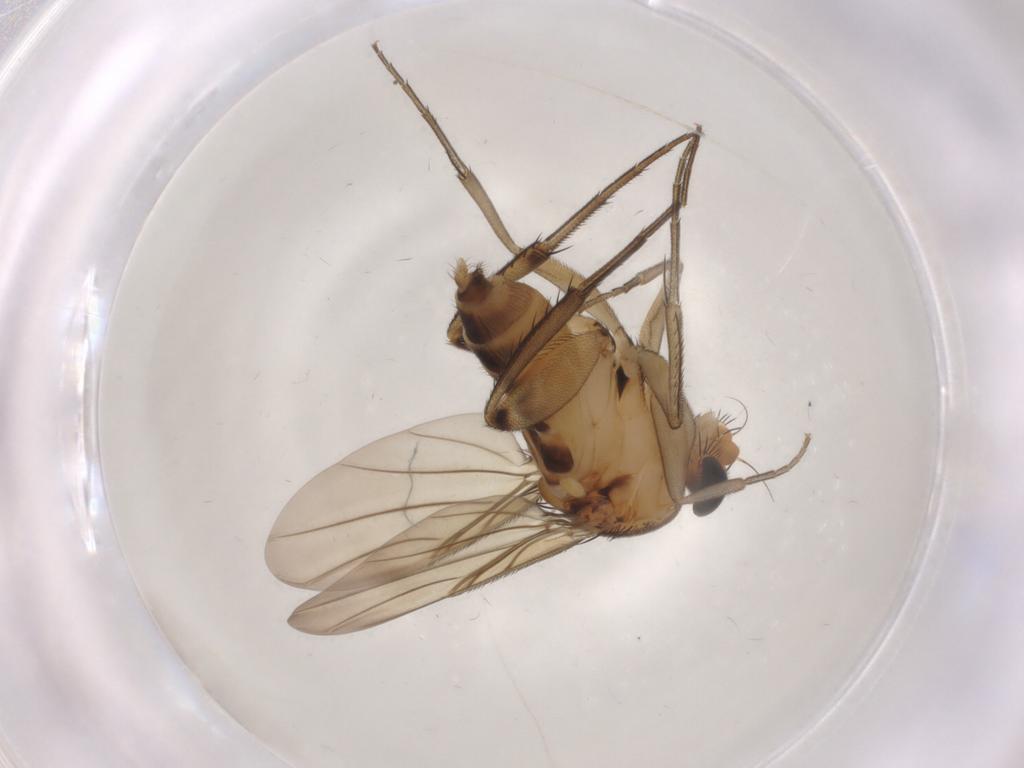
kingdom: Animalia
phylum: Arthropoda
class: Insecta
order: Diptera
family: Phoridae
